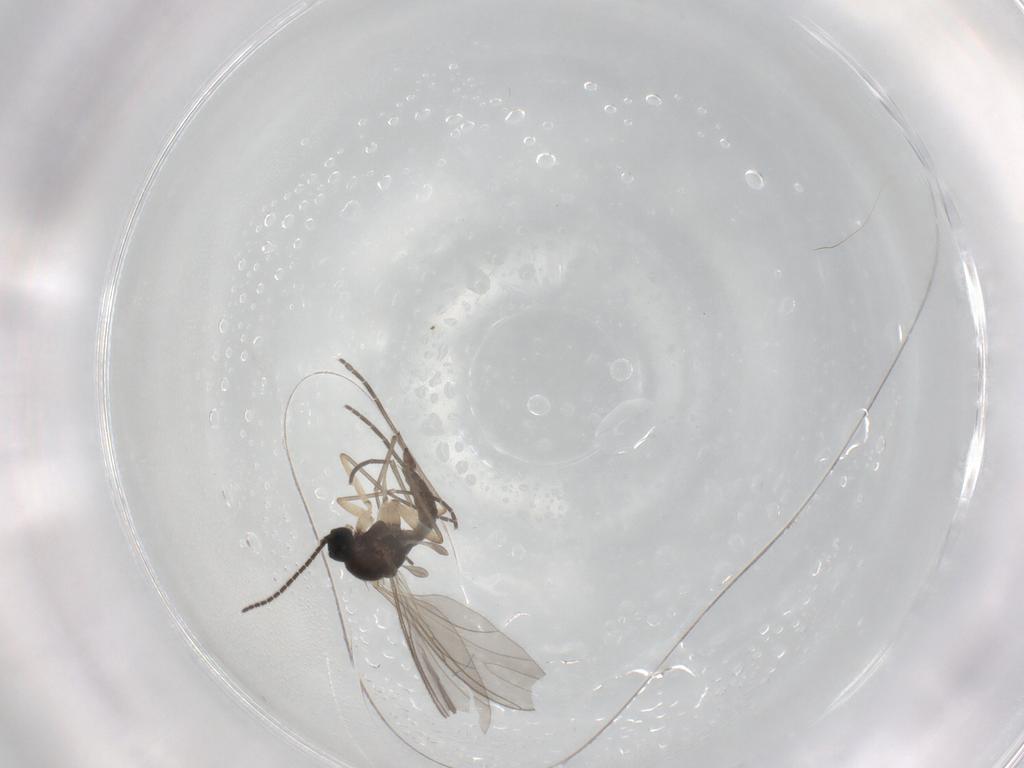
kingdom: Animalia
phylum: Arthropoda
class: Insecta
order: Diptera
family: Sciaridae
